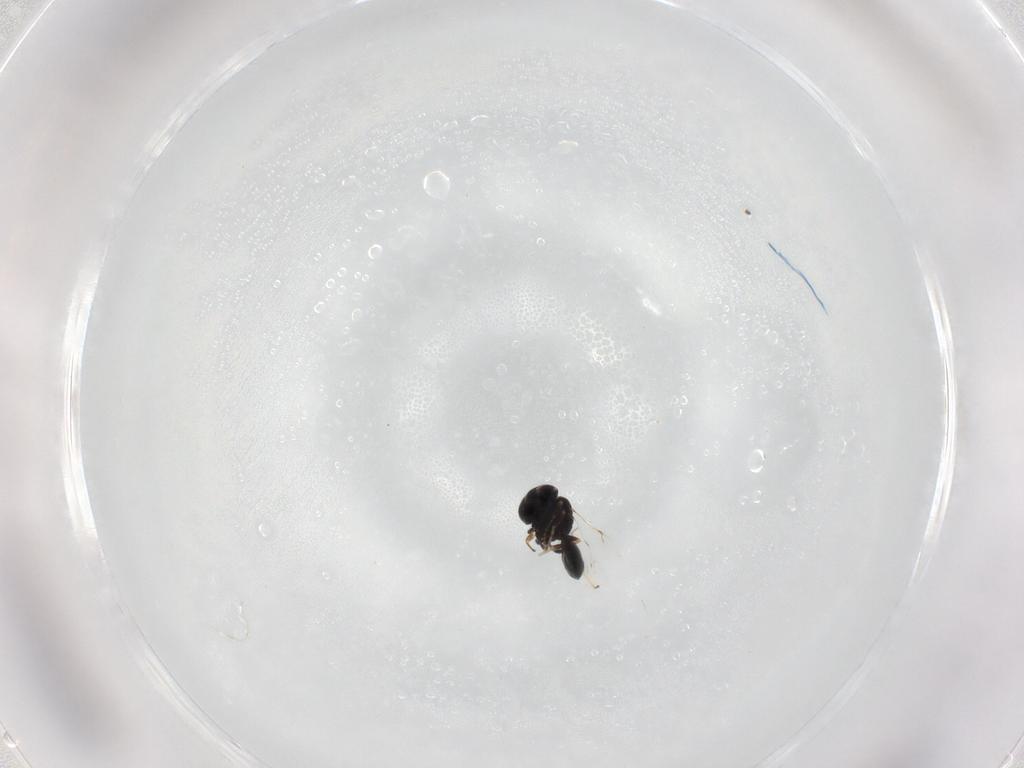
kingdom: Animalia
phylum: Arthropoda
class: Insecta
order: Hymenoptera
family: Scelionidae
